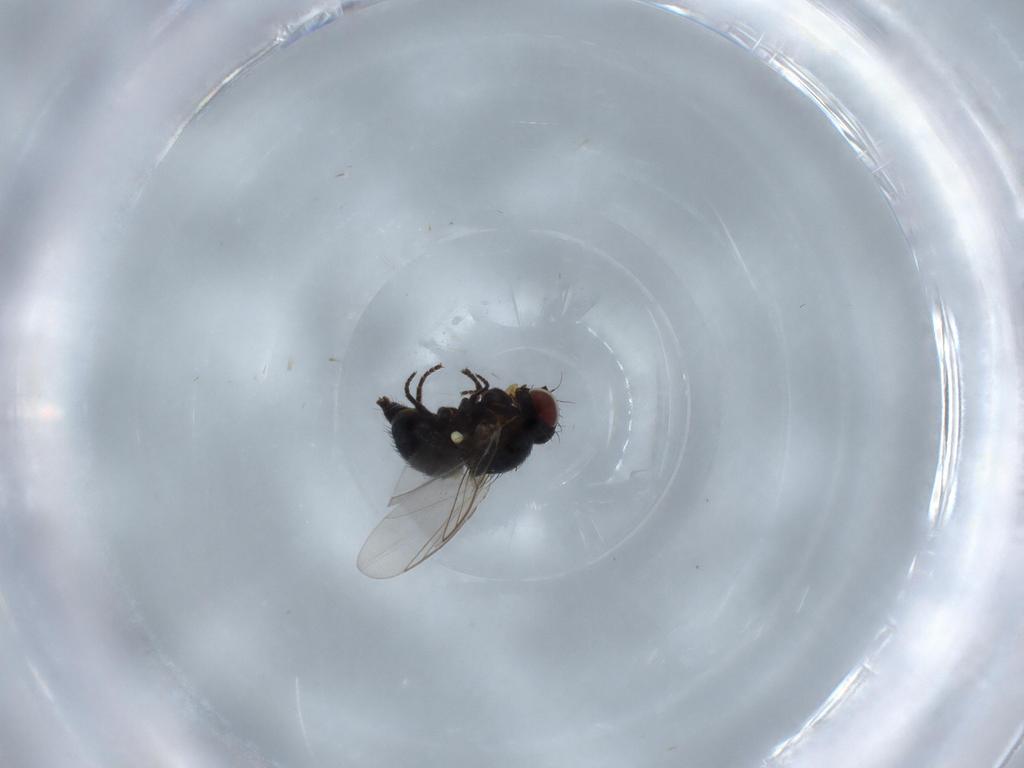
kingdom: Animalia
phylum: Arthropoda
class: Insecta
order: Diptera
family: Agromyzidae
